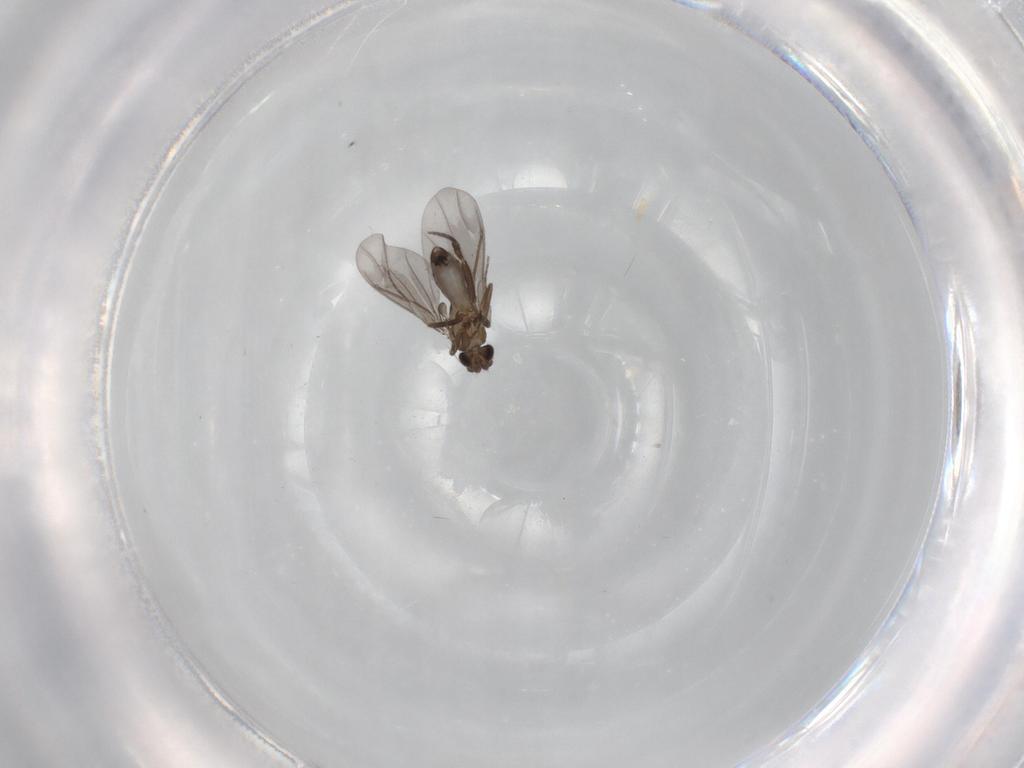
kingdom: Animalia
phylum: Arthropoda
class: Insecta
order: Diptera
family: Phoridae
